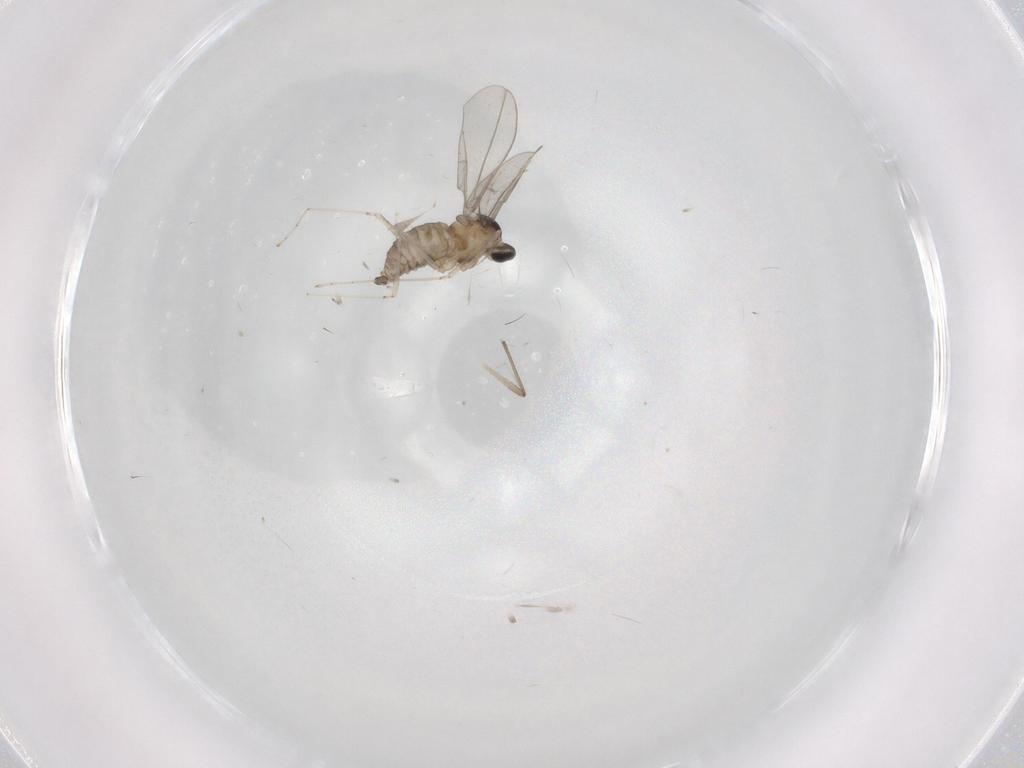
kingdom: Animalia
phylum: Arthropoda
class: Insecta
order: Diptera
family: Cecidomyiidae
